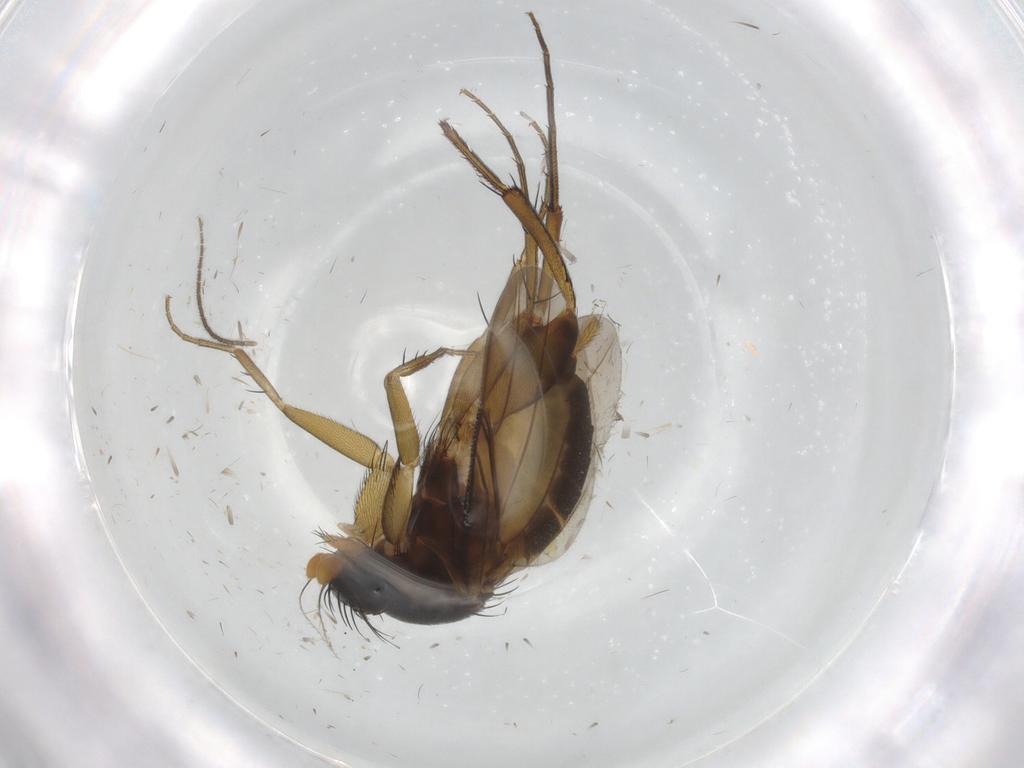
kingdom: Animalia
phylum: Arthropoda
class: Insecta
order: Diptera
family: Phoridae
